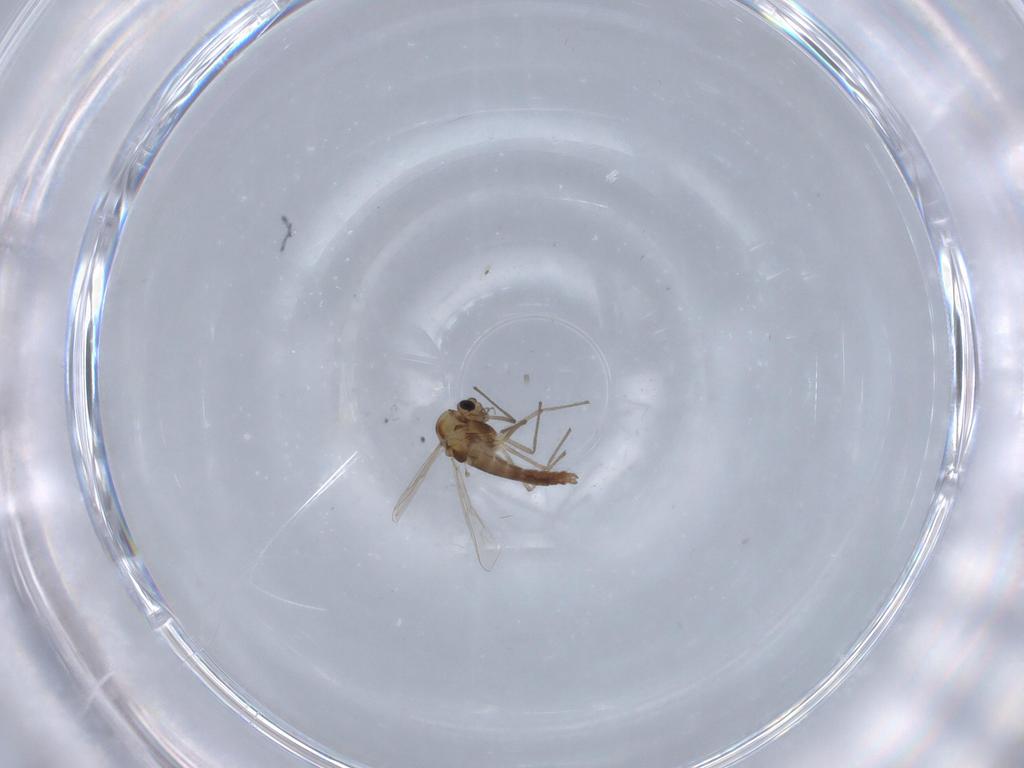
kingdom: Animalia
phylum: Arthropoda
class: Insecta
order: Diptera
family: Chironomidae
